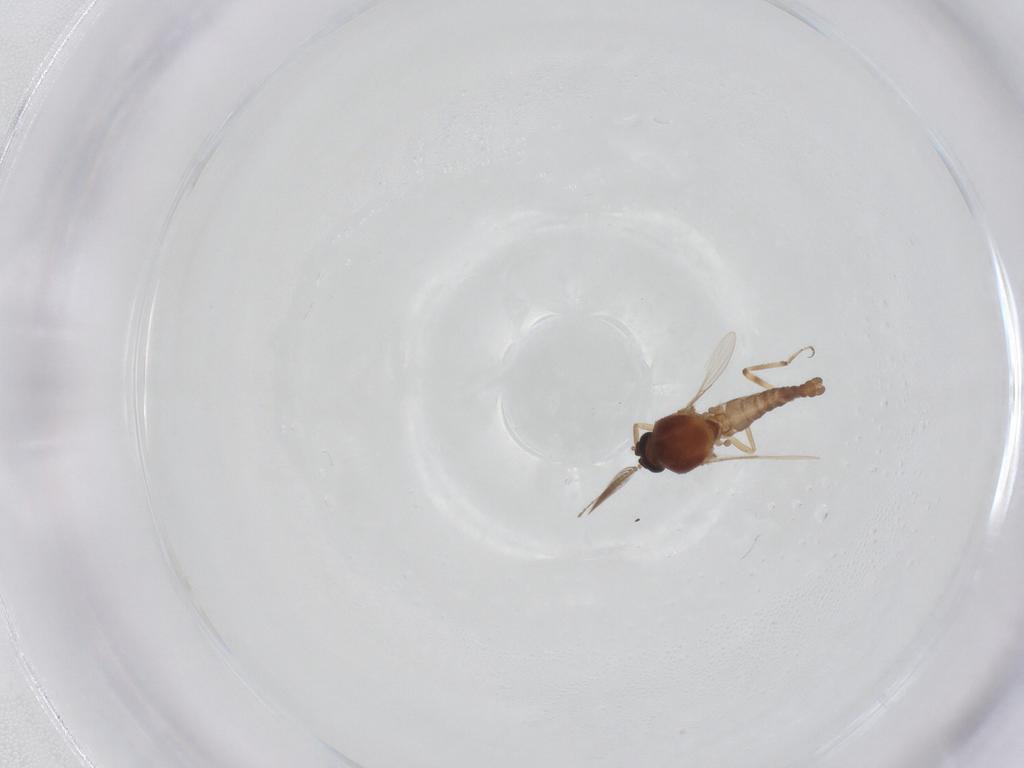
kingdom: Animalia
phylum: Arthropoda
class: Insecta
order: Diptera
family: Ceratopogonidae
